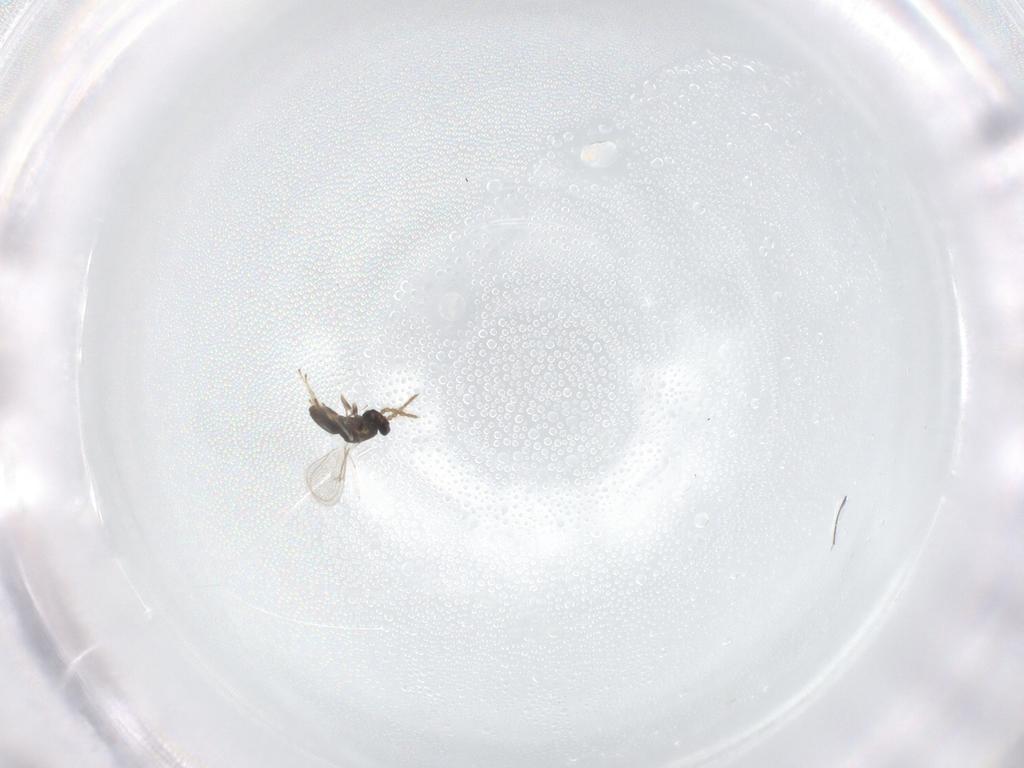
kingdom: Animalia
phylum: Arthropoda
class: Insecta
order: Hymenoptera
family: Eulophidae
